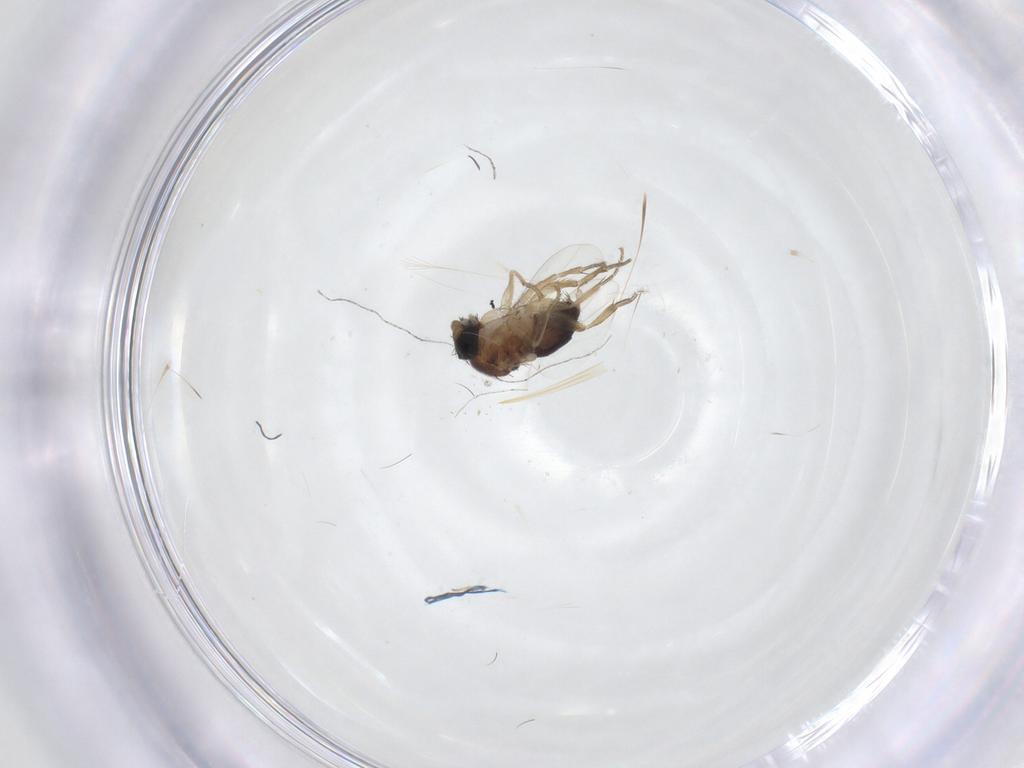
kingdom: Animalia
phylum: Arthropoda
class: Insecta
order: Diptera
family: Phoridae
